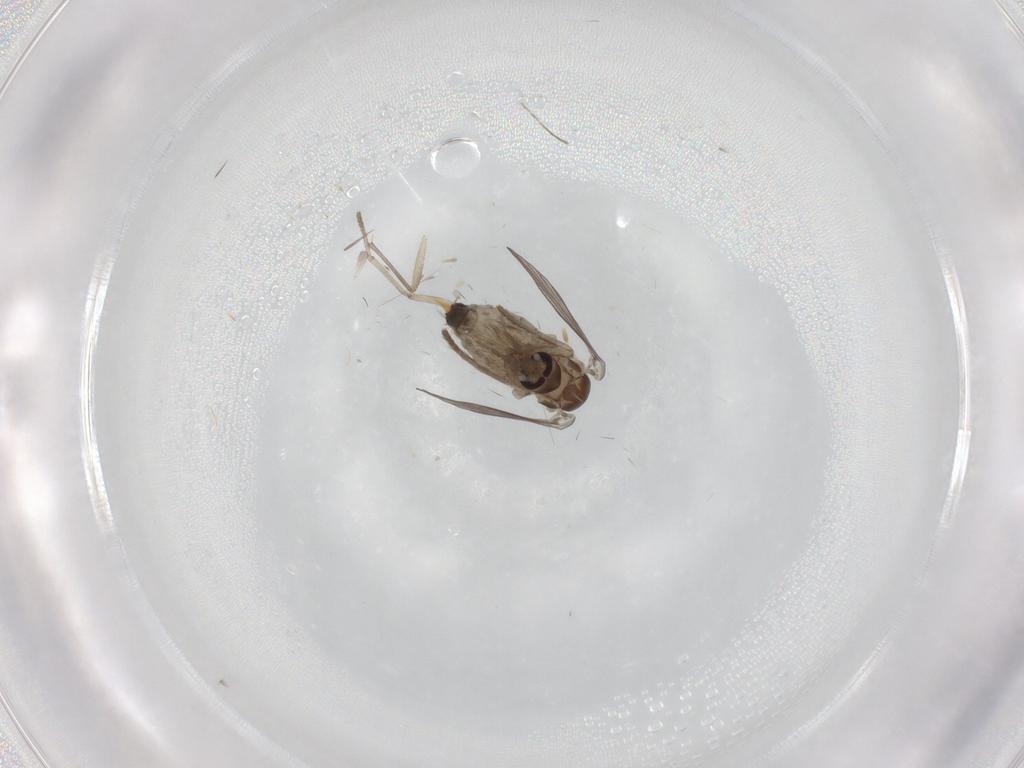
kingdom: Animalia
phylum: Arthropoda
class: Insecta
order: Diptera
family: Psychodidae
